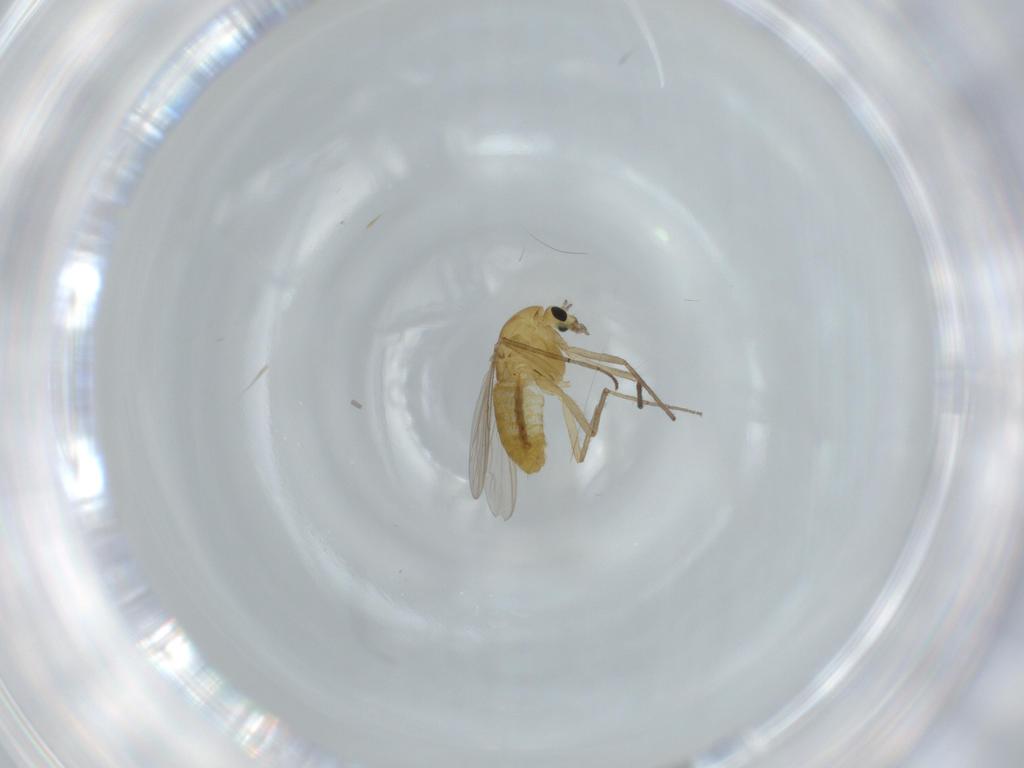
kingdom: Animalia
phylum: Arthropoda
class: Insecta
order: Diptera
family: Chironomidae
